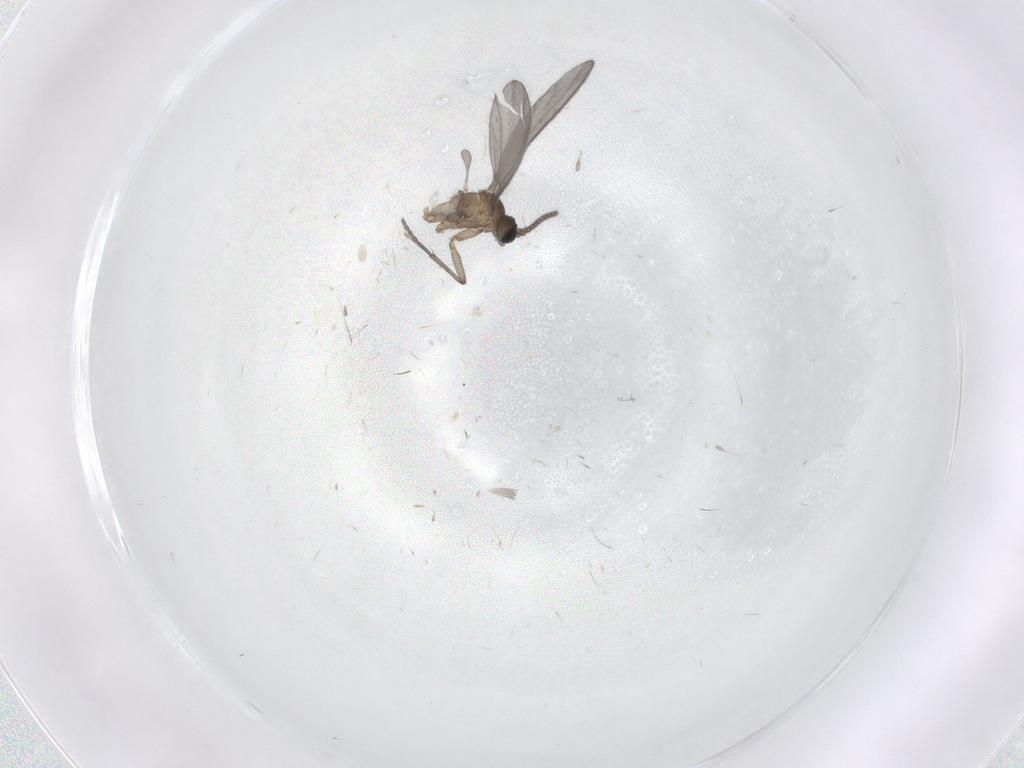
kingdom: Animalia
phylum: Arthropoda
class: Insecta
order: Diptera
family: Sciaridae
